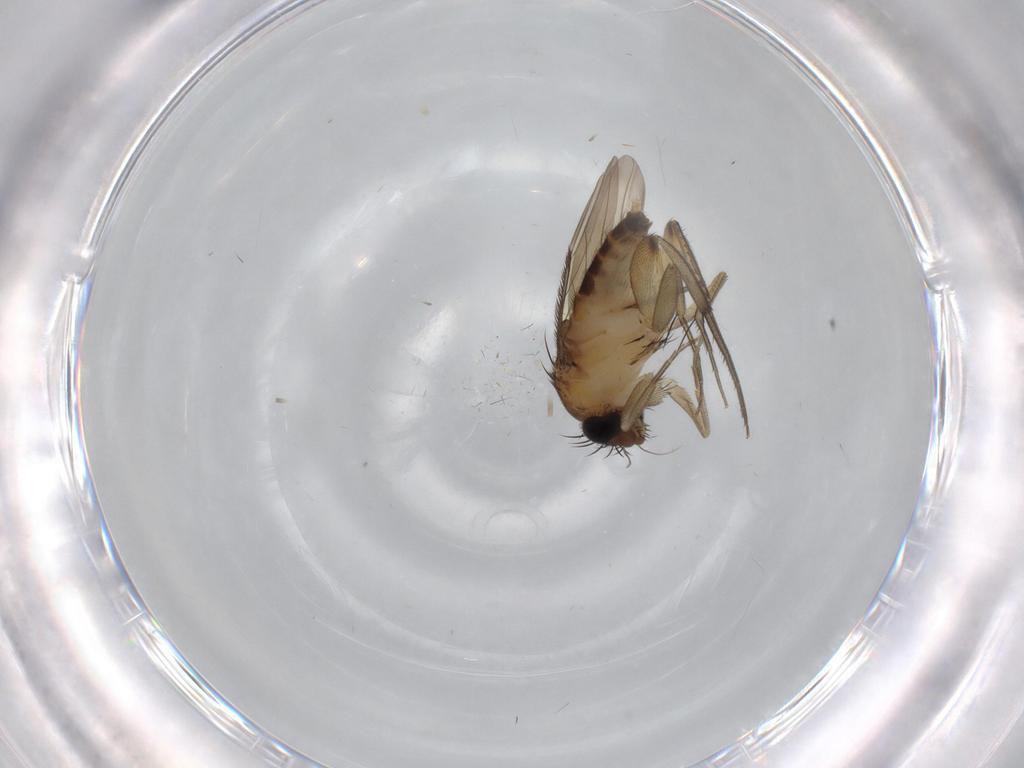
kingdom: Animalia
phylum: Arthropoda
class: Insecta
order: Diptera
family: Phoridae
